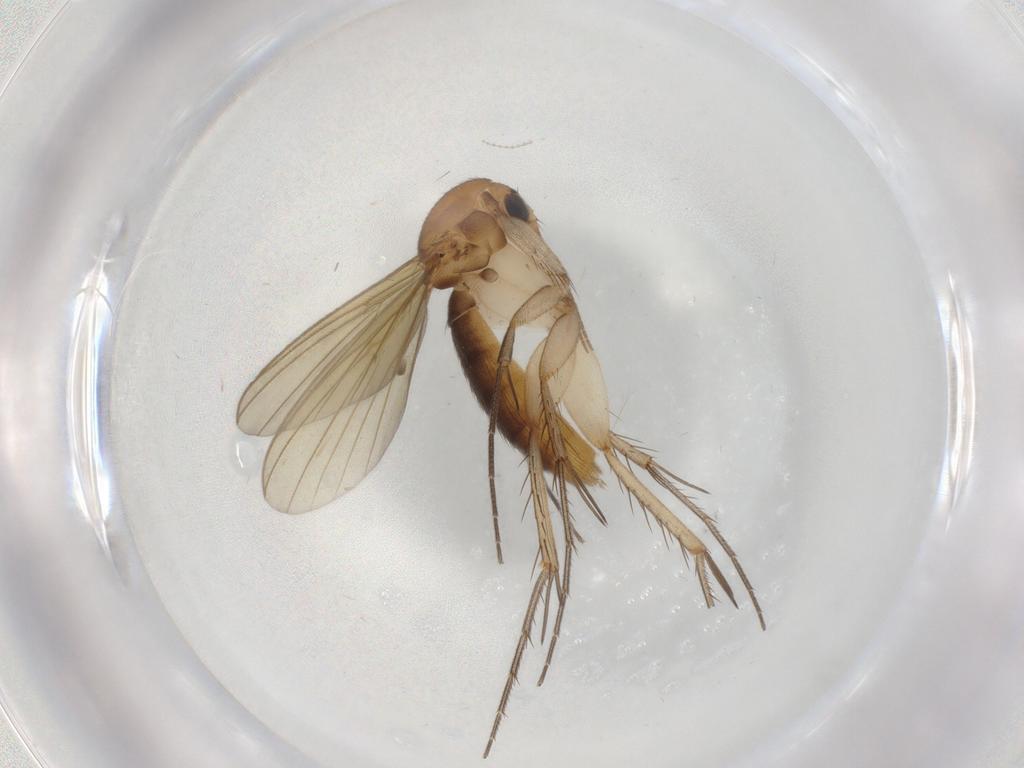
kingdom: Animalia
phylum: Arthropoda
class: Insecta
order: Diptera
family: Mycetophilidae
